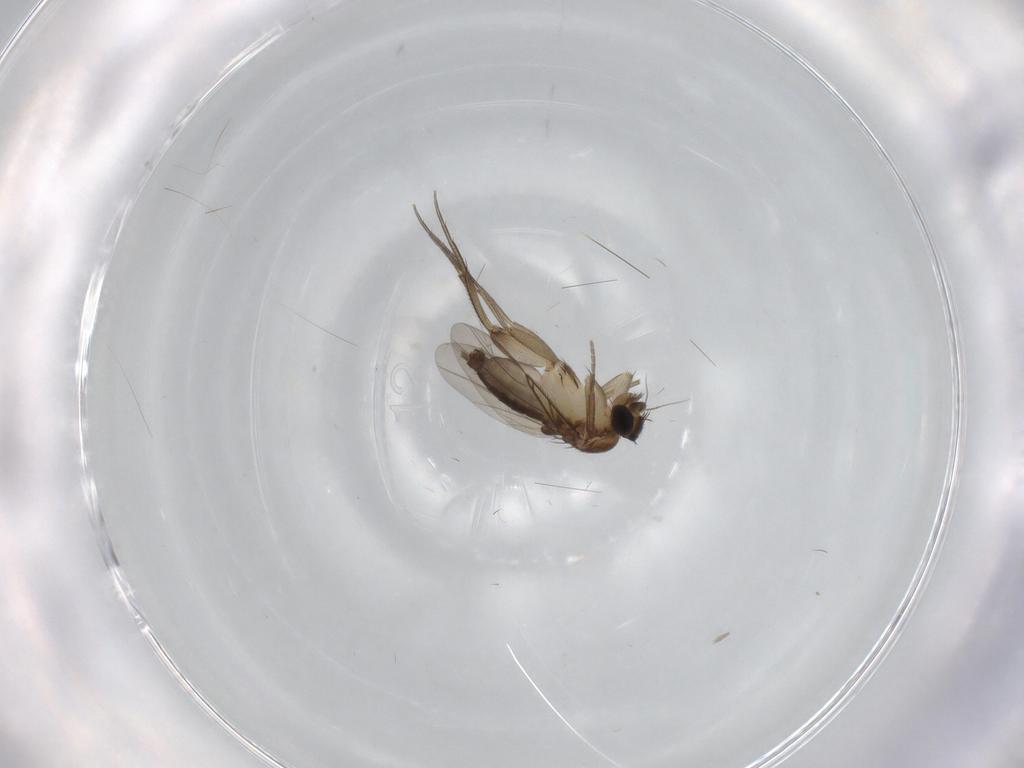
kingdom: Animalia
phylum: Arthropoda
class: Insecta
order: Diptera
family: Phoridae
